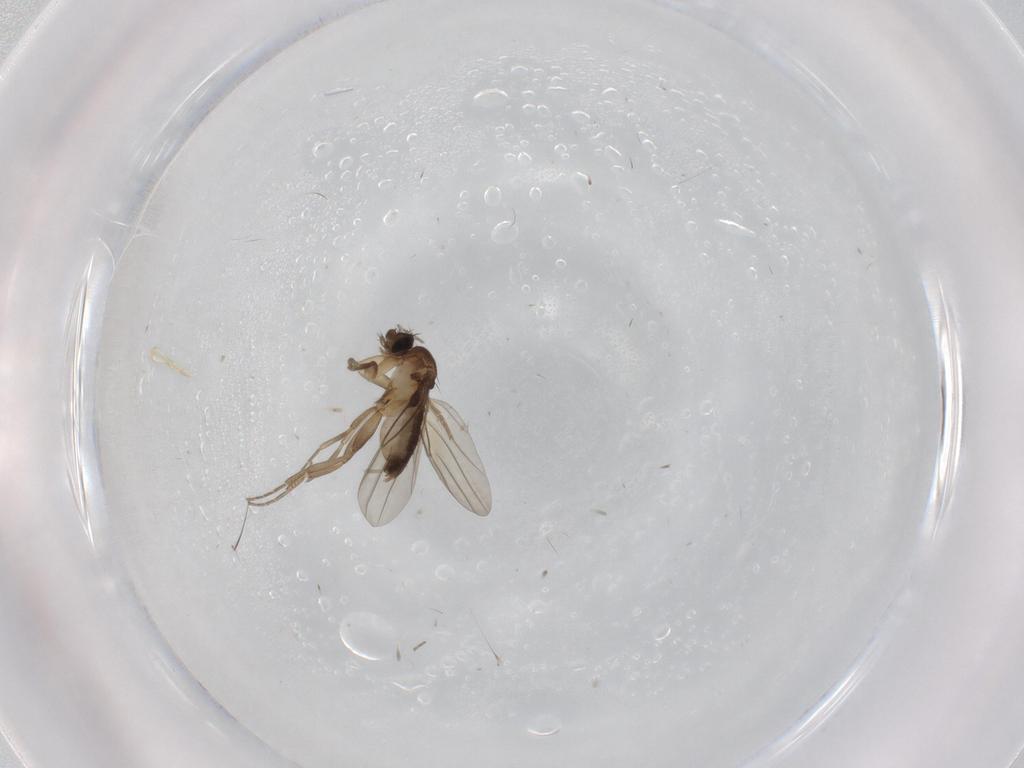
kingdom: Animalia
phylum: Arthropoda
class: Insecta
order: Diptera
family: Phoridae
